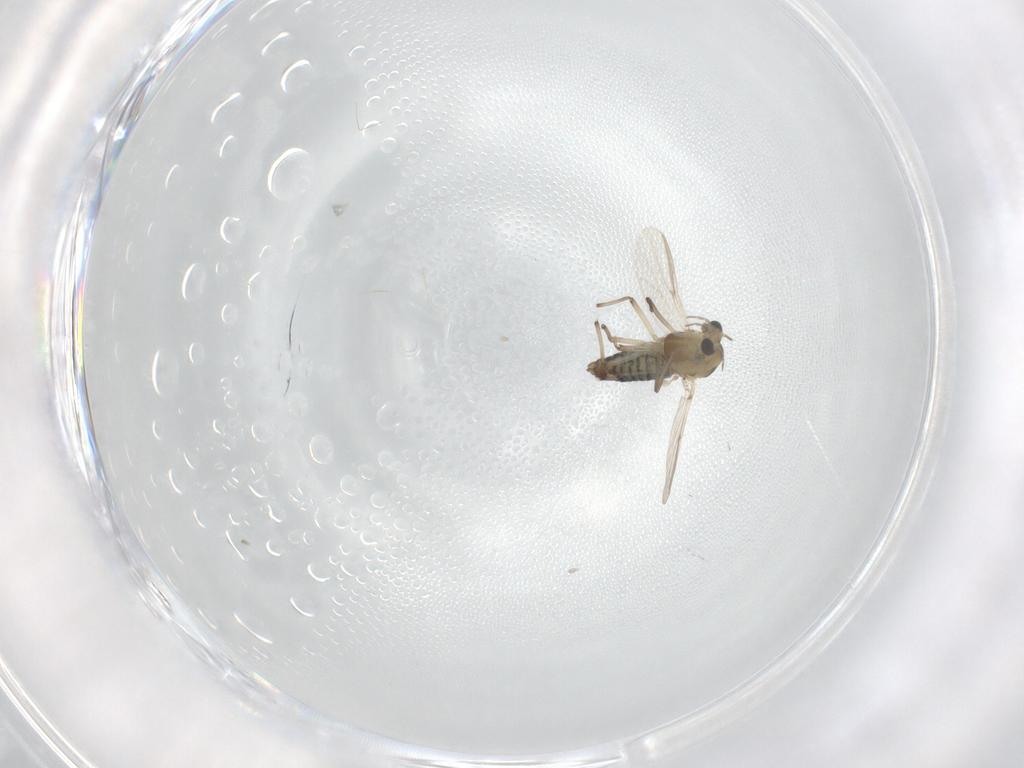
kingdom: Animalia
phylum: Arthropoda
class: Insecta
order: Diptera
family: Chironomidae
